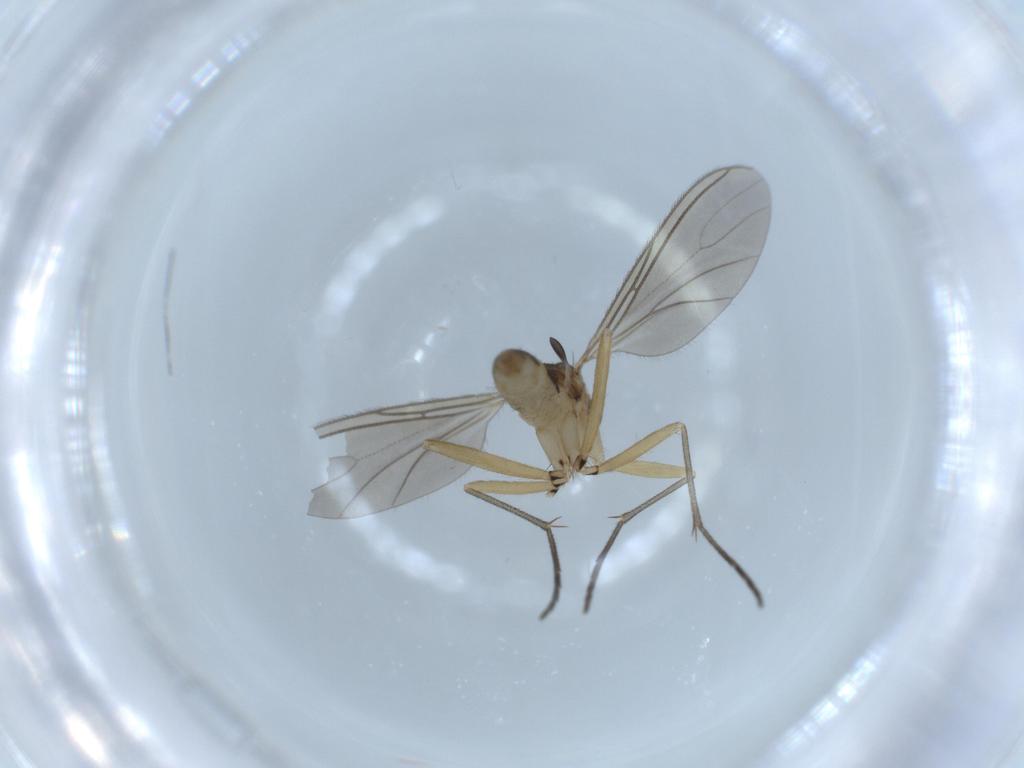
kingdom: Animalia
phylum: Arthropoda
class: Insecta
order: Diptera
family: Sciaridae
